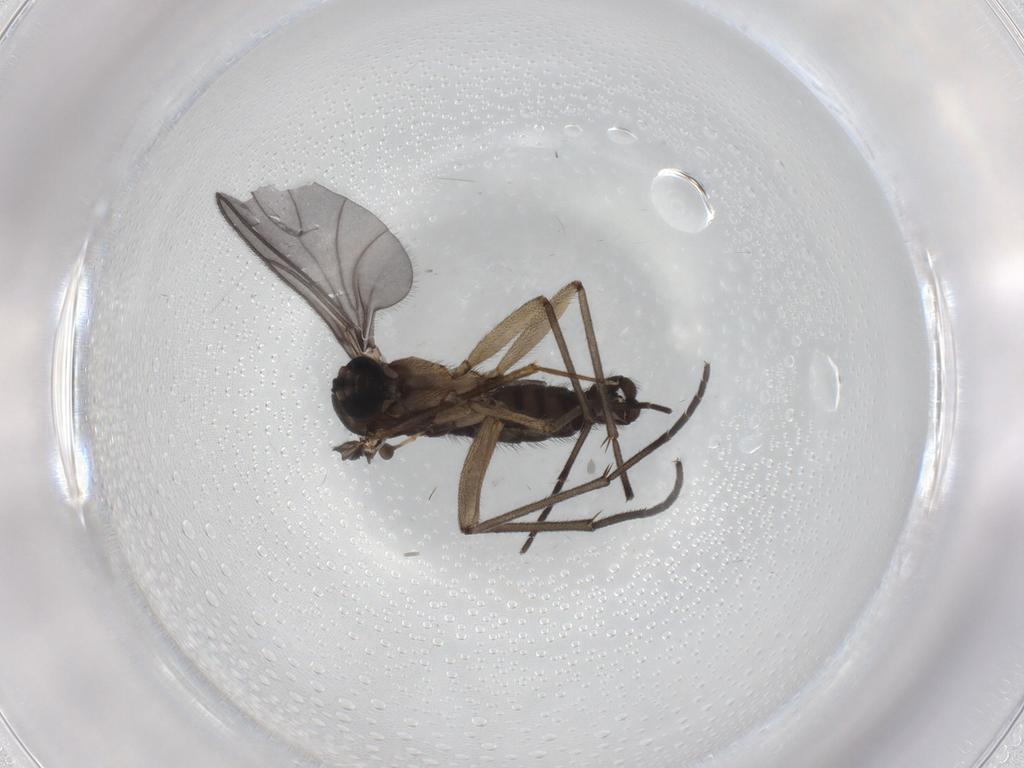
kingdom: Animalia
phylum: Arthropoda
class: Insecta
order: Diptera
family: Sciaridae
